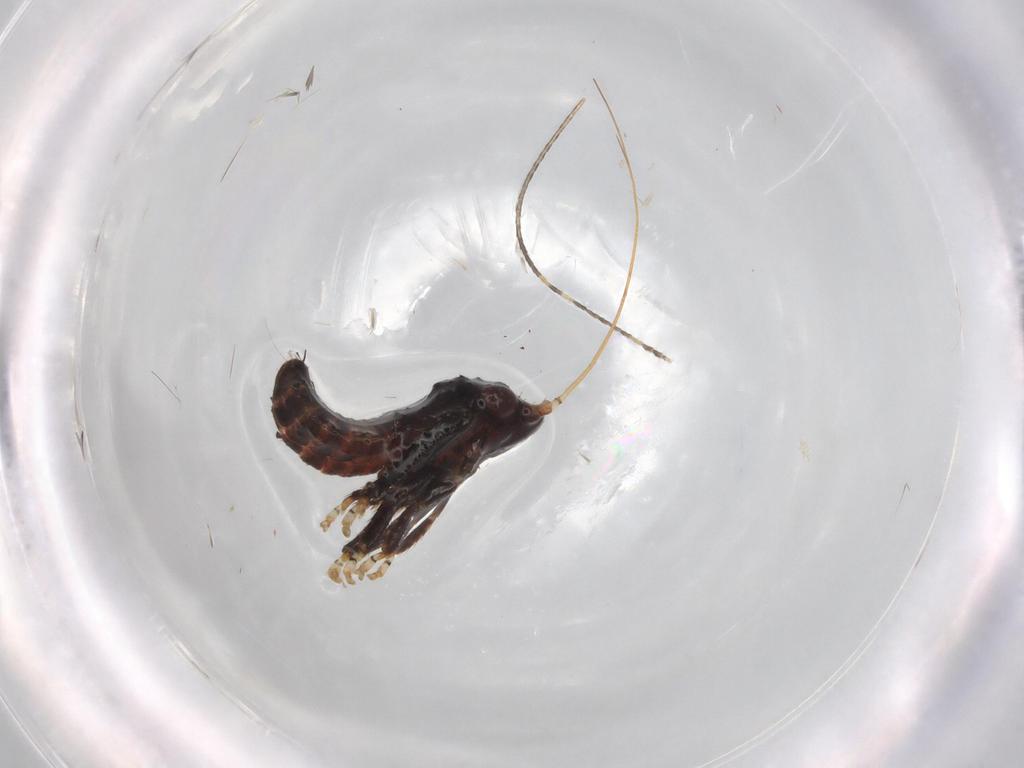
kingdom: Animalia
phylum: Arthropoda
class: Insecta
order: Hemiptera
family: Cicadellidae
